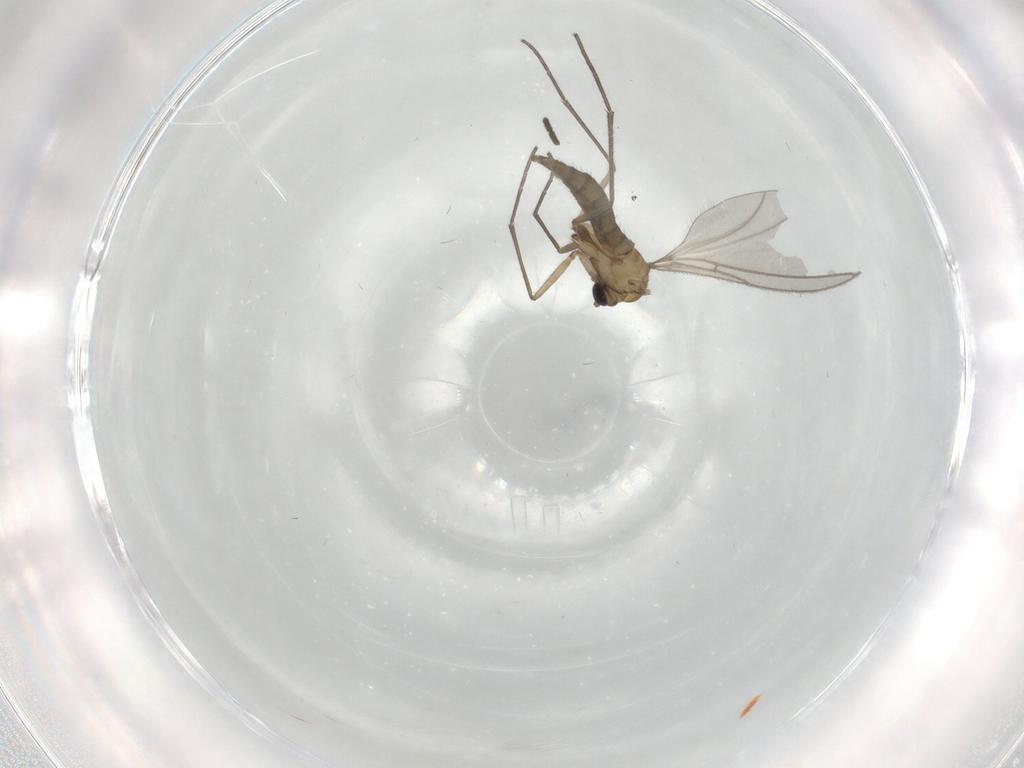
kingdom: Animalia
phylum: Arthropoda
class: Insecta
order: Diptera
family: Sciaridae
